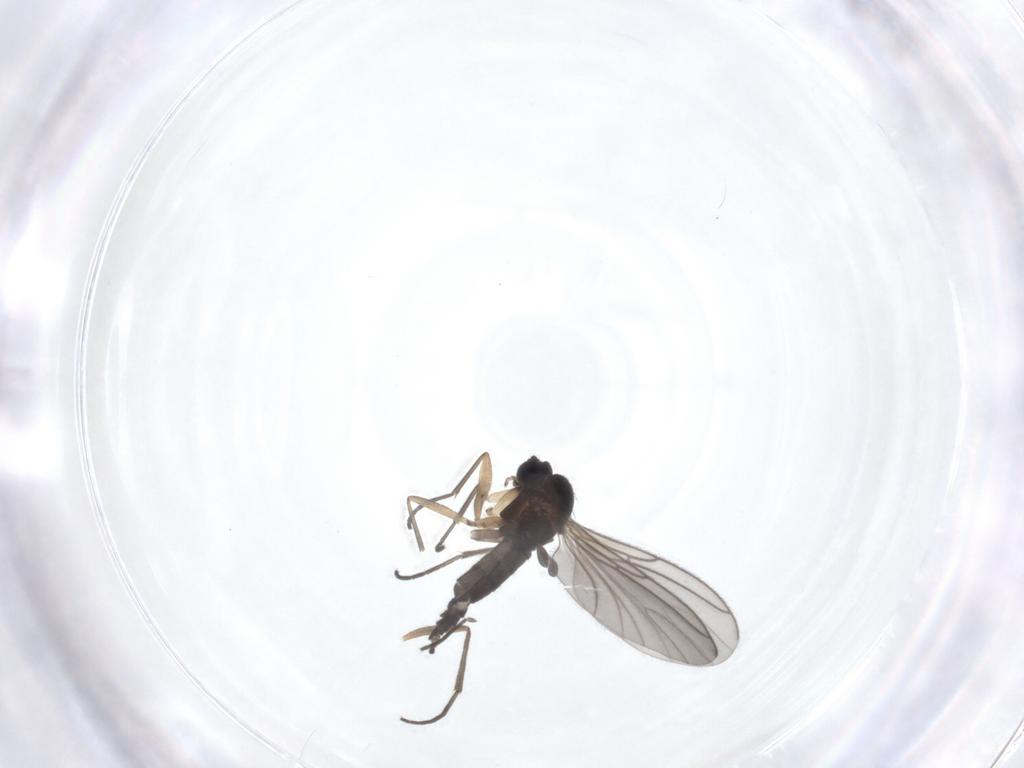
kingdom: Animalia
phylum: Arthropoda
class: Insecta
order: Diptera
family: Sciaridae
